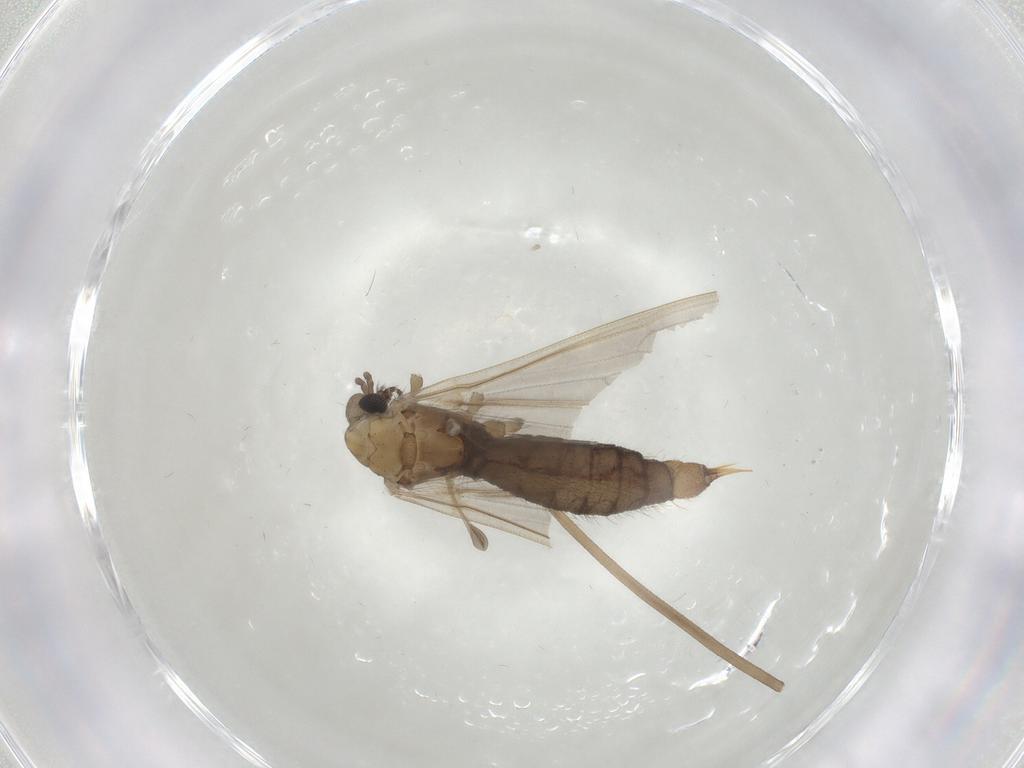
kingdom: Animalia
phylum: Arthropoda
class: Insecta
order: Diptera
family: Limoniidae
